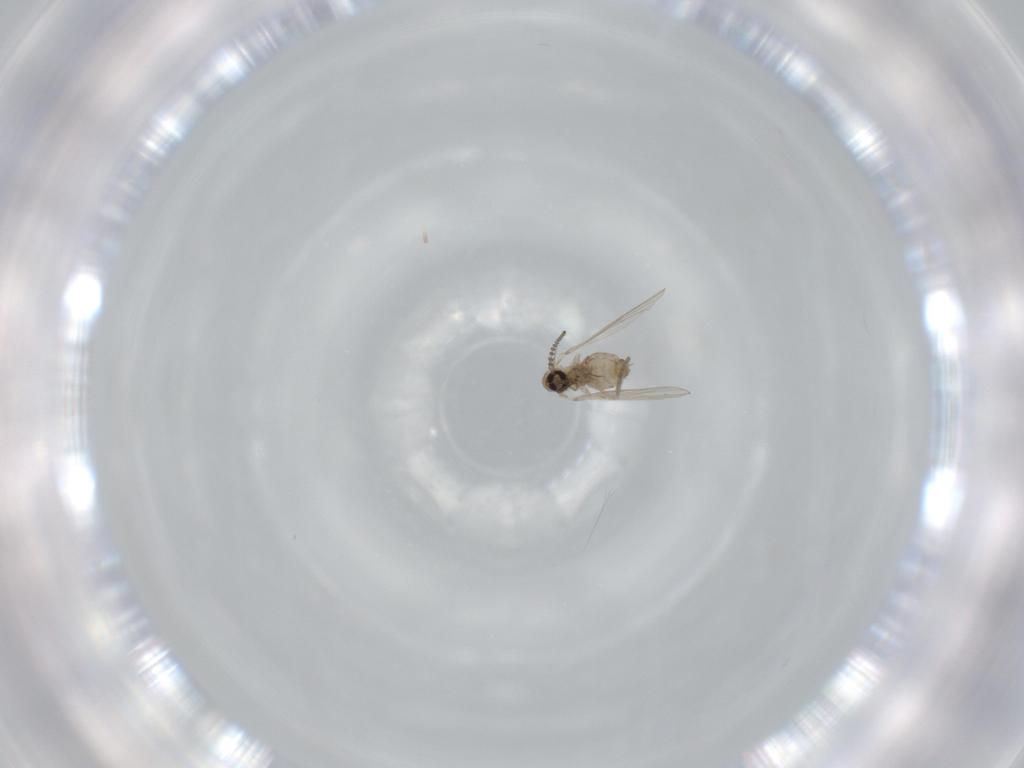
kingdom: Animalia
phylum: Arthropoda
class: Insecta
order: Diptera
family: Psychodidae
